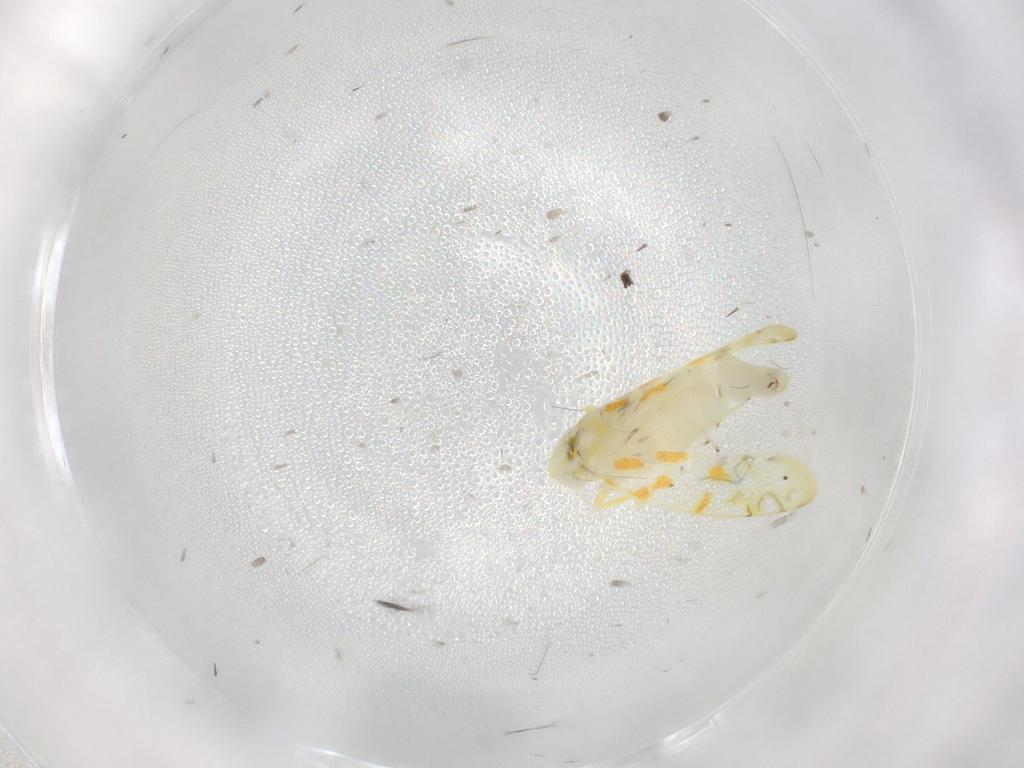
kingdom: Animalia
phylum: Arthropoda
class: Insecta
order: Hemiptera
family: Cicadellidae
